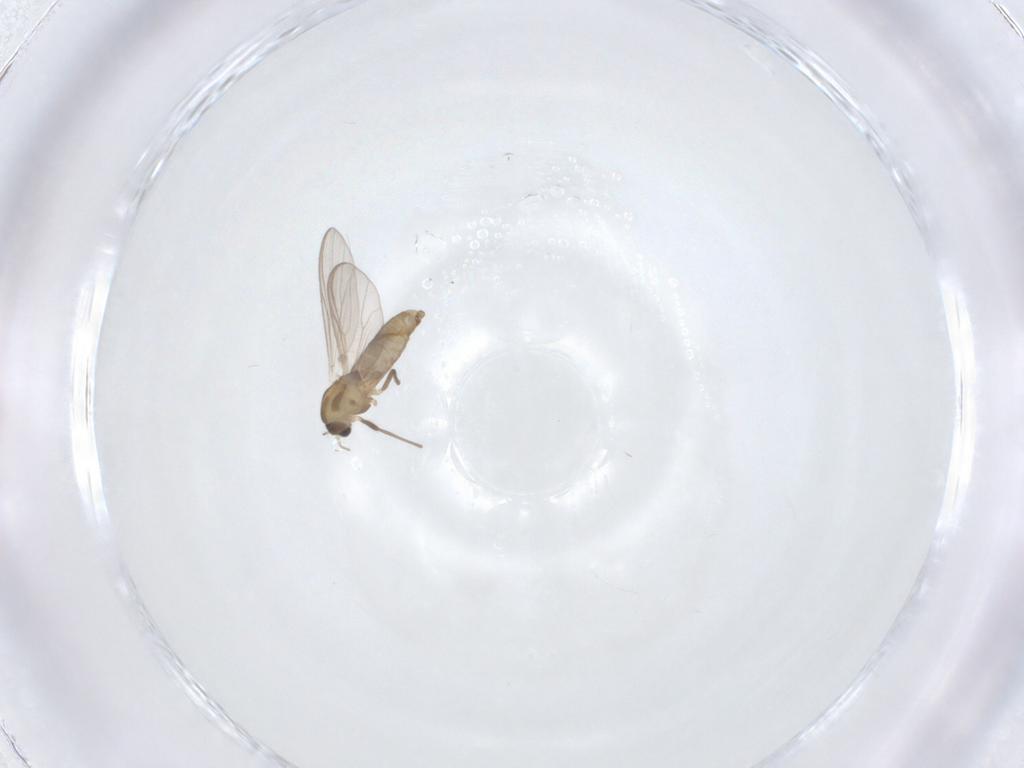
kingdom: Animalia
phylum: Arthropoda
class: Insecta
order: Diptera
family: Chironomidae
